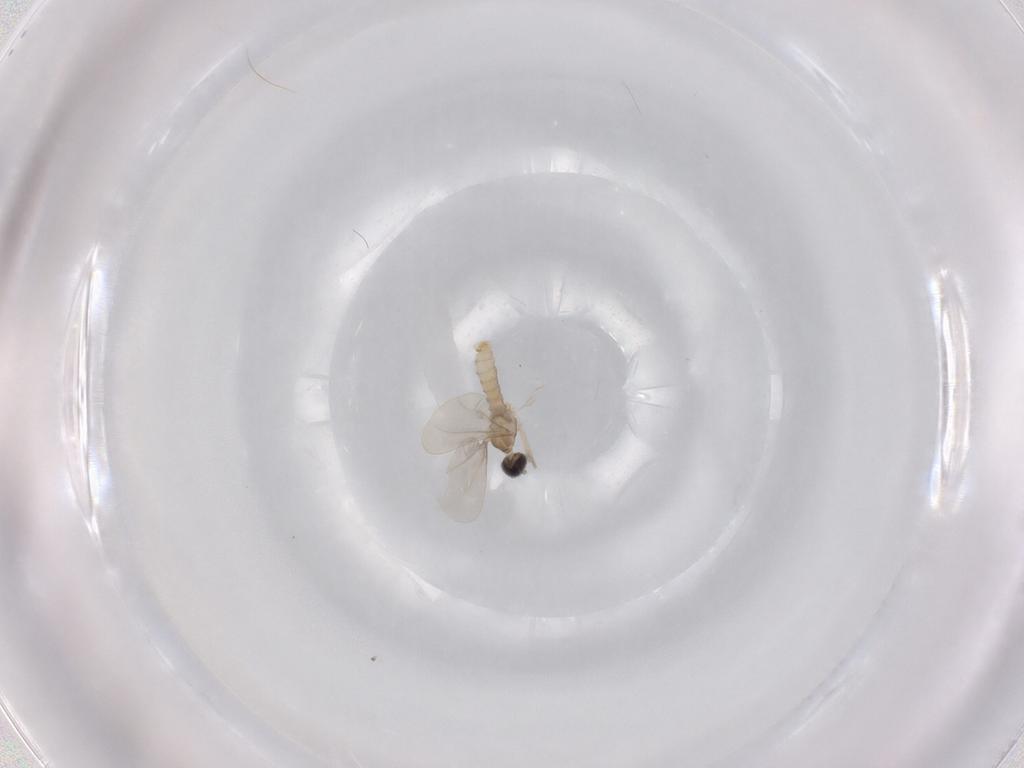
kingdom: Animalia
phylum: Arthropoda
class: Insecta
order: Diptera
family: Cecidomyiidae
